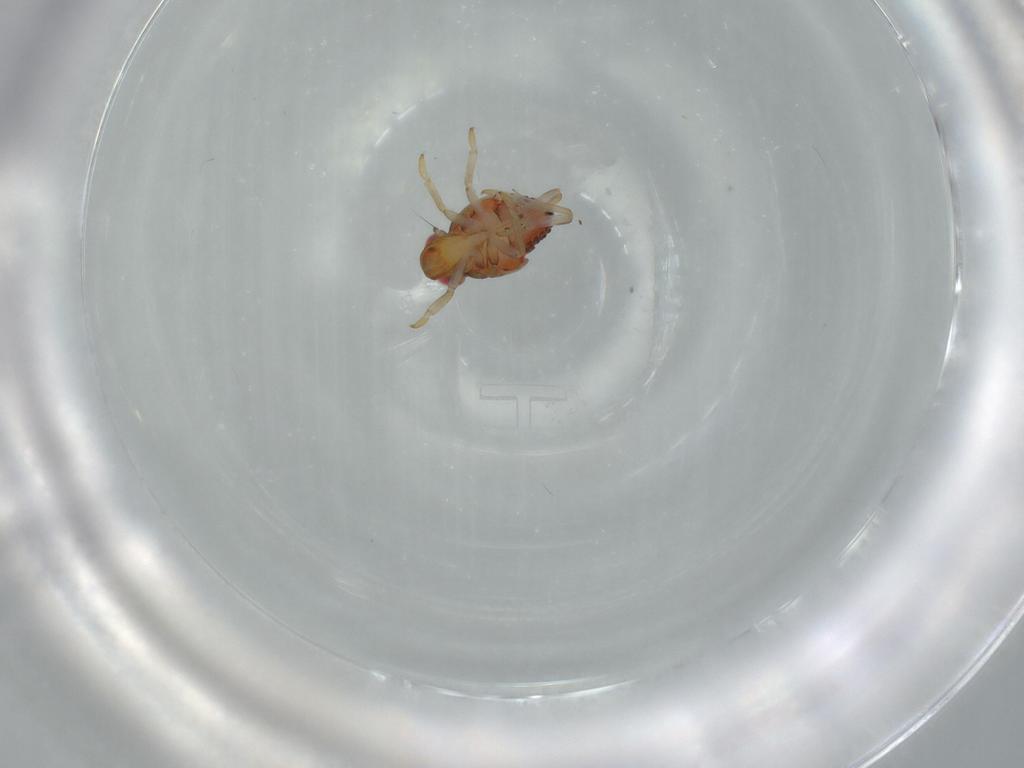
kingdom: Animalia
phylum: Arthropoda
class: Insecta
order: Hemiptera
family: Issidae
